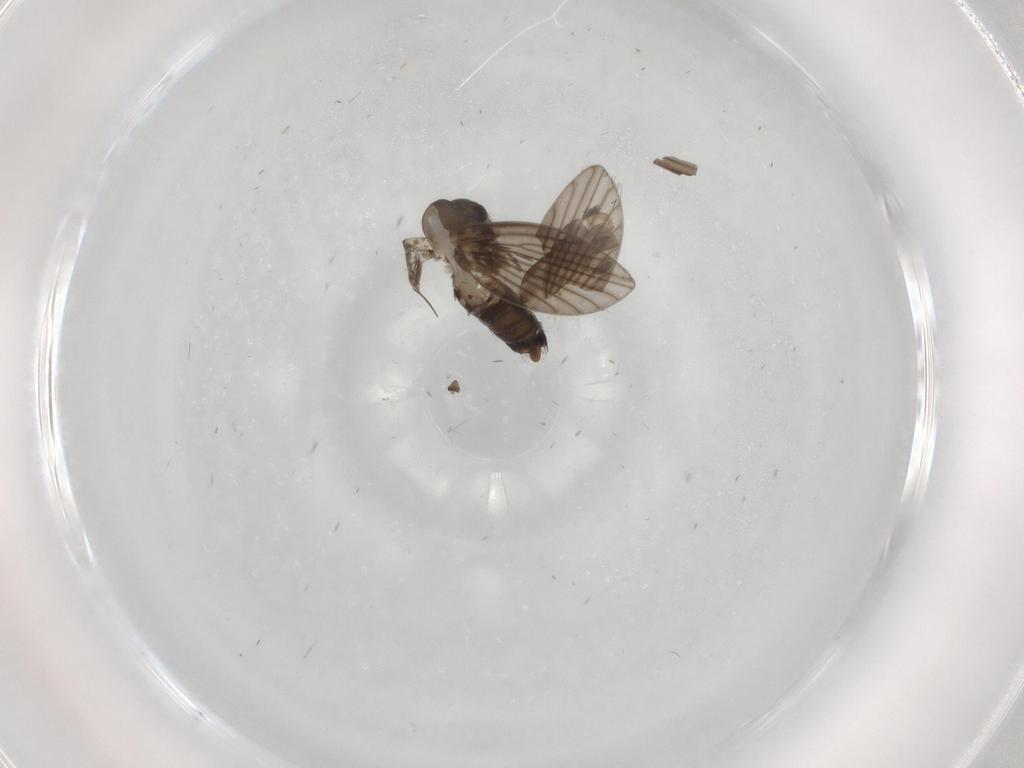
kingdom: Animalia
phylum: Arthropoda
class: Insecta
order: Diptera
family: Cecidomyiidae
